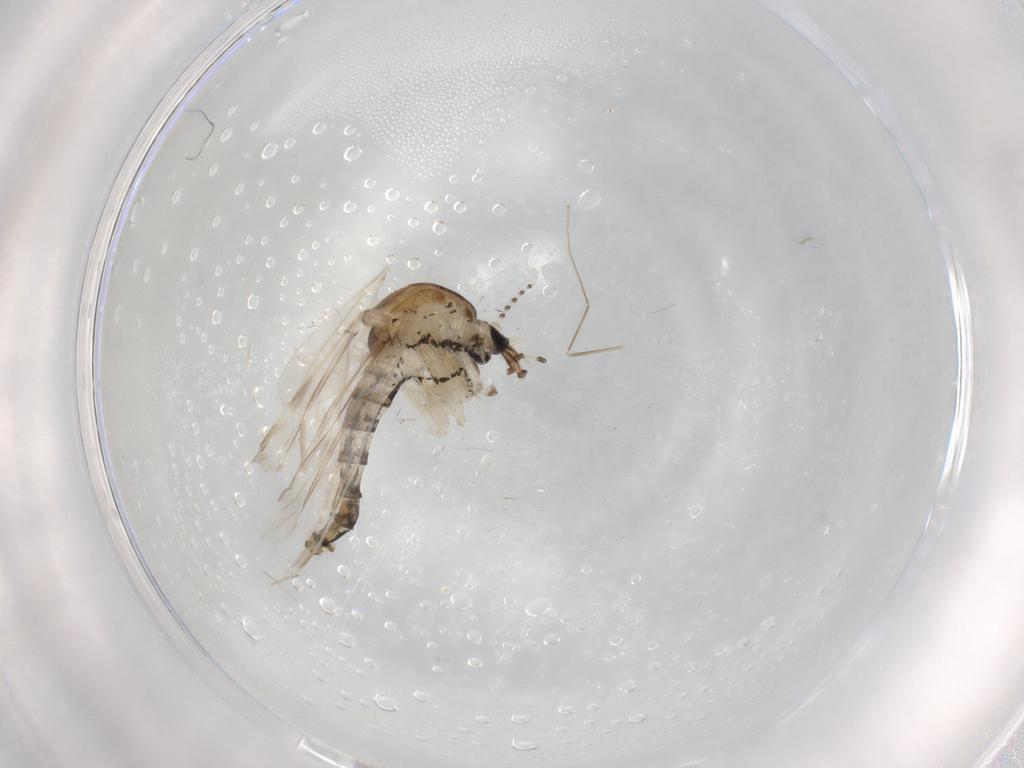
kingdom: Animalia
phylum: Arthropoda
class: Insecta
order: Diptera
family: Chironomidae
